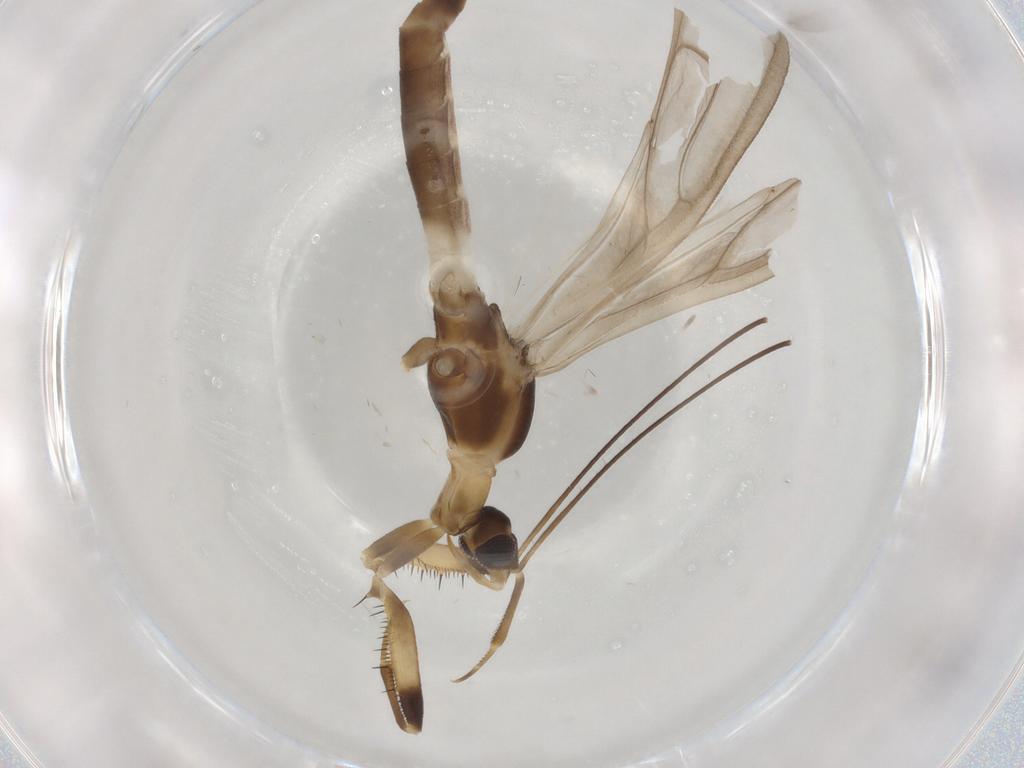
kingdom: Animalia
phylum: Arthropoda
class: Insecta
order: Hemiptera
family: Reduviidae
